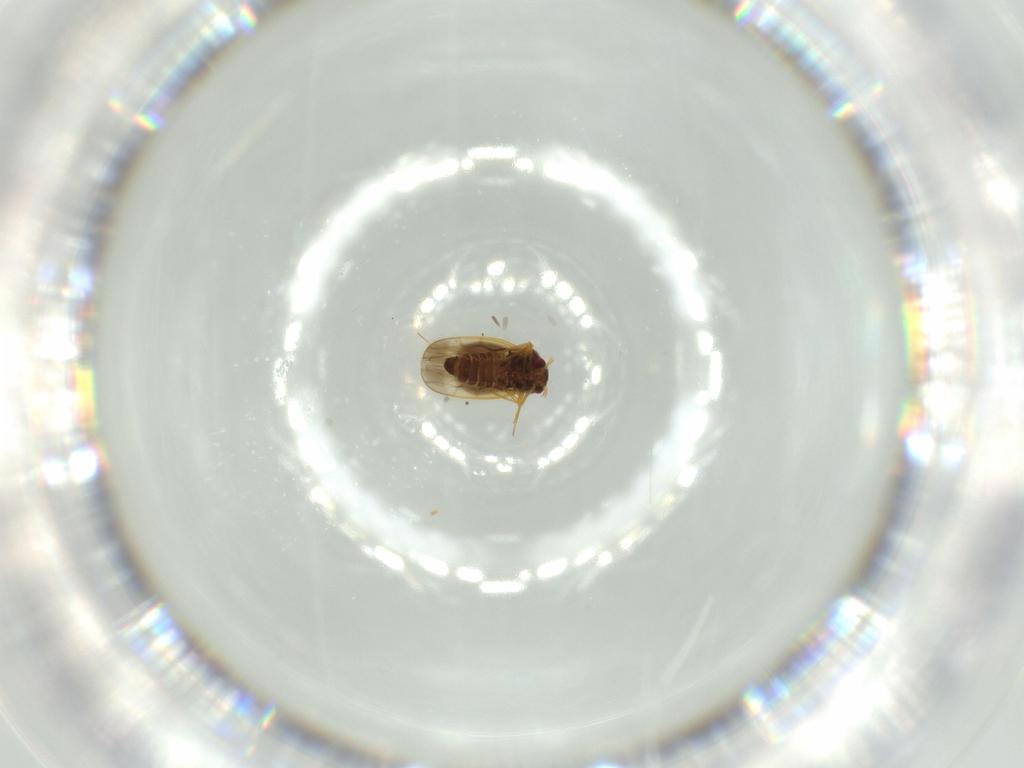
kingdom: Animalia
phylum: Arthropoda
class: Insecta
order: Hemiptera
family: Schizopteridae
